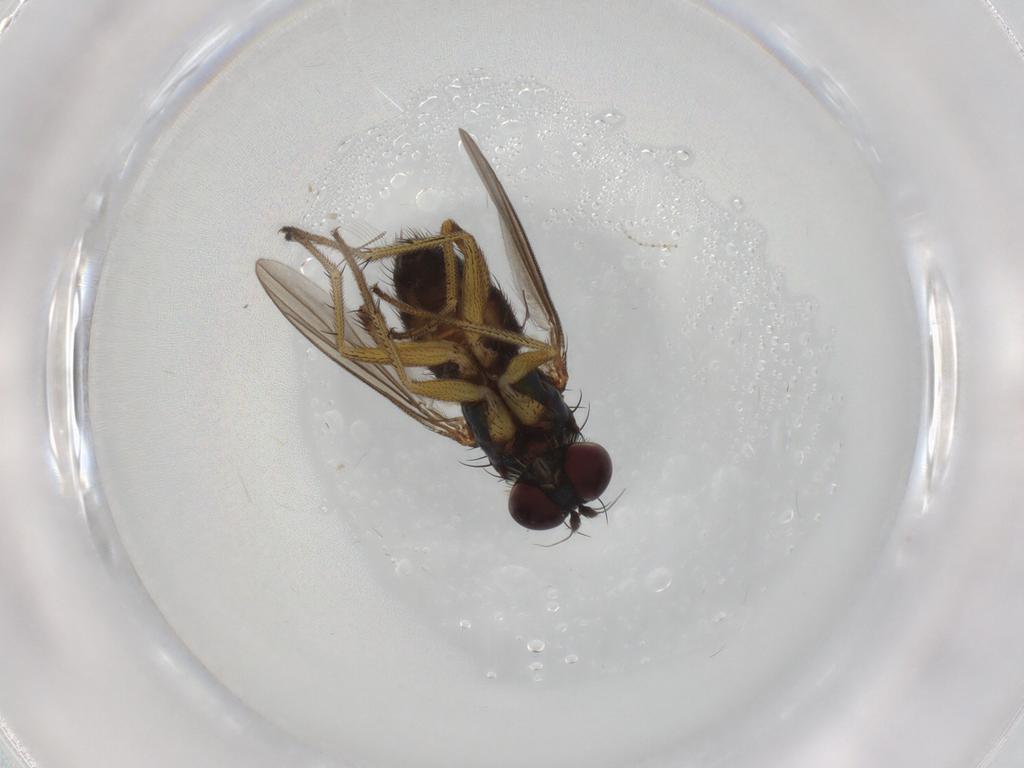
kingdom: Animalia
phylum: Arthropoda
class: Insecta
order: Diptera
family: Dolichopodidae
